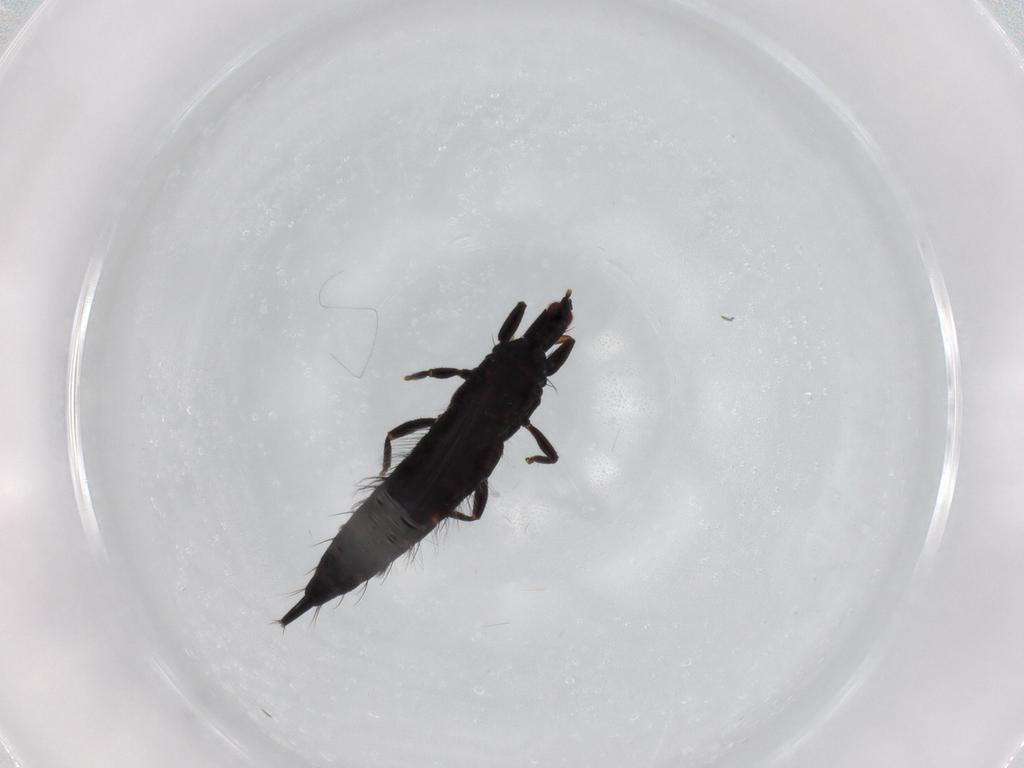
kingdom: Animalia
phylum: Arthropoda
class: Insecta
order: Thysanoptera
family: Phlaeothripidae
